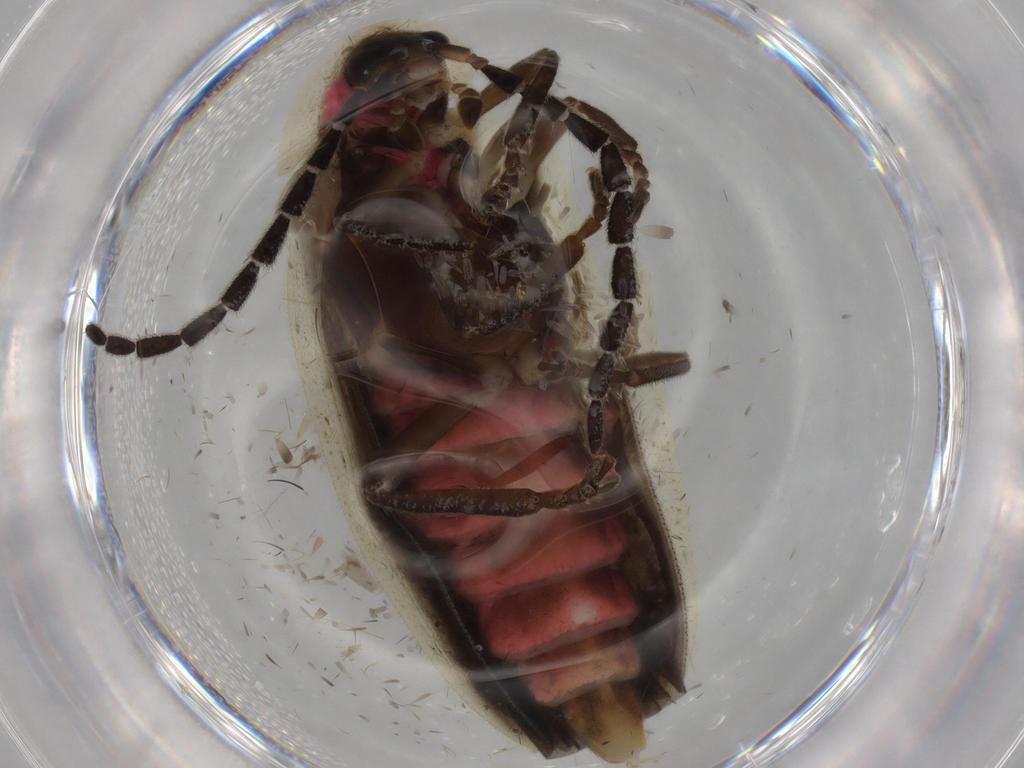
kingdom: Animalia
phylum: Arthropoda
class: Insecta
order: Coleoptera
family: Lampyridae
